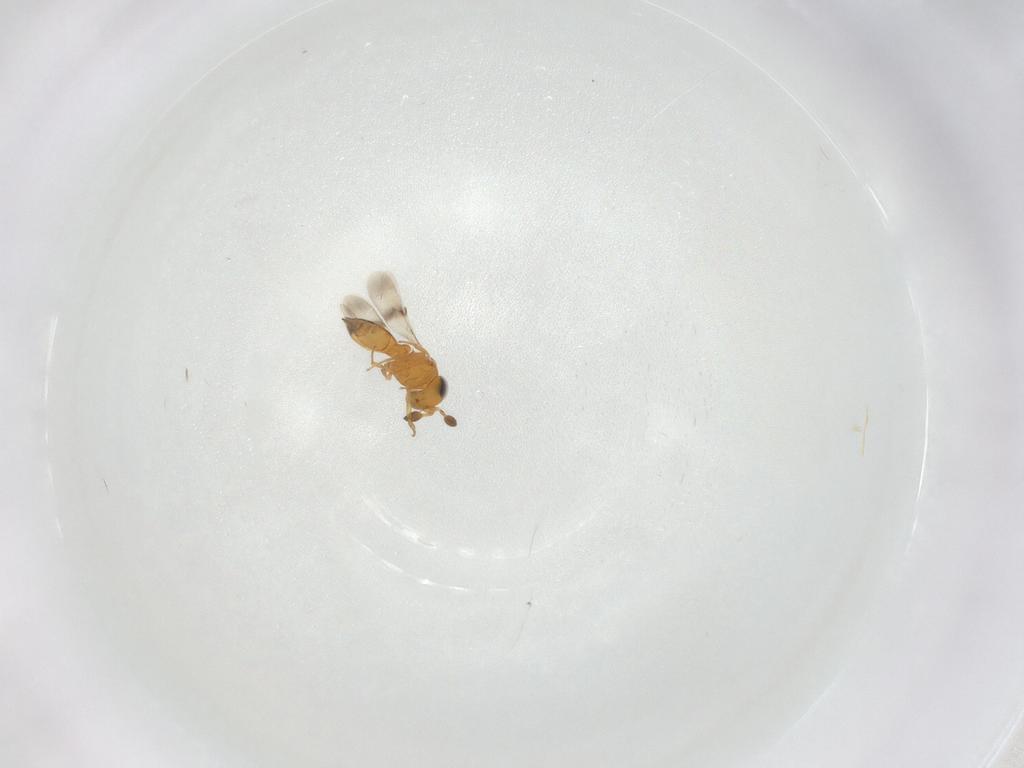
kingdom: Animalia
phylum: Arthropoda
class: Insecta
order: Hymenoptera
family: Scelionidae
